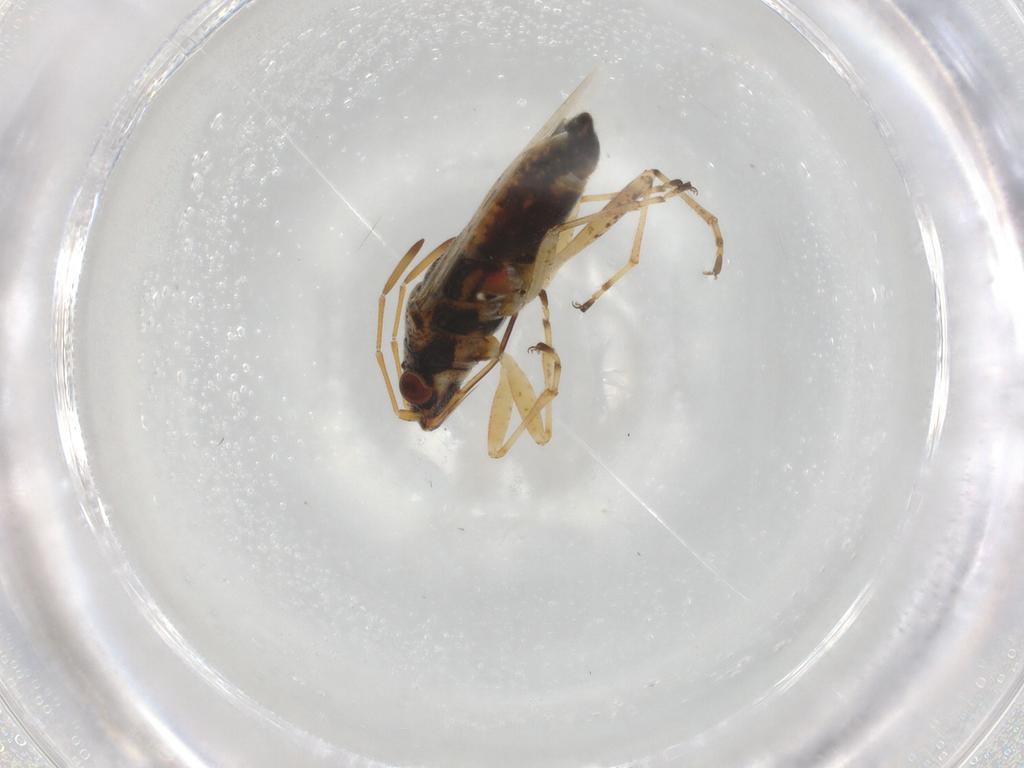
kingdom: Animalia
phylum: Arthropoda
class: Insecta
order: Hemiptera
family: Lygaeidae
